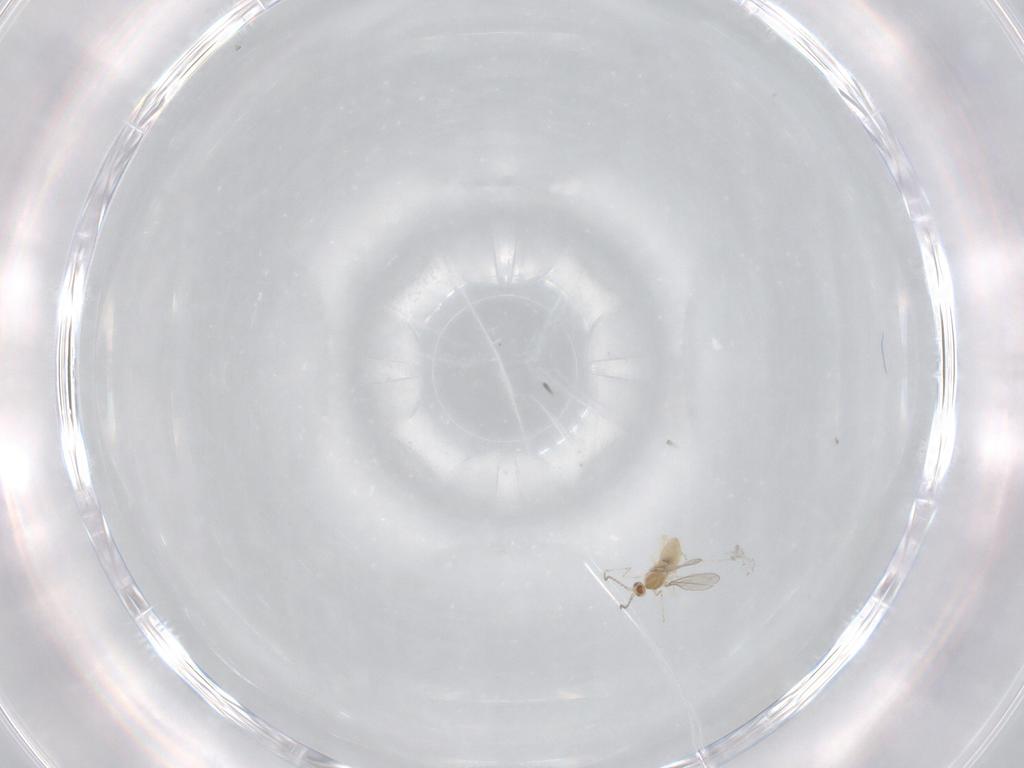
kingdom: Animalia
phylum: Arthropoda
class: Insecta
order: Diptera
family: Cecidomyiidae
